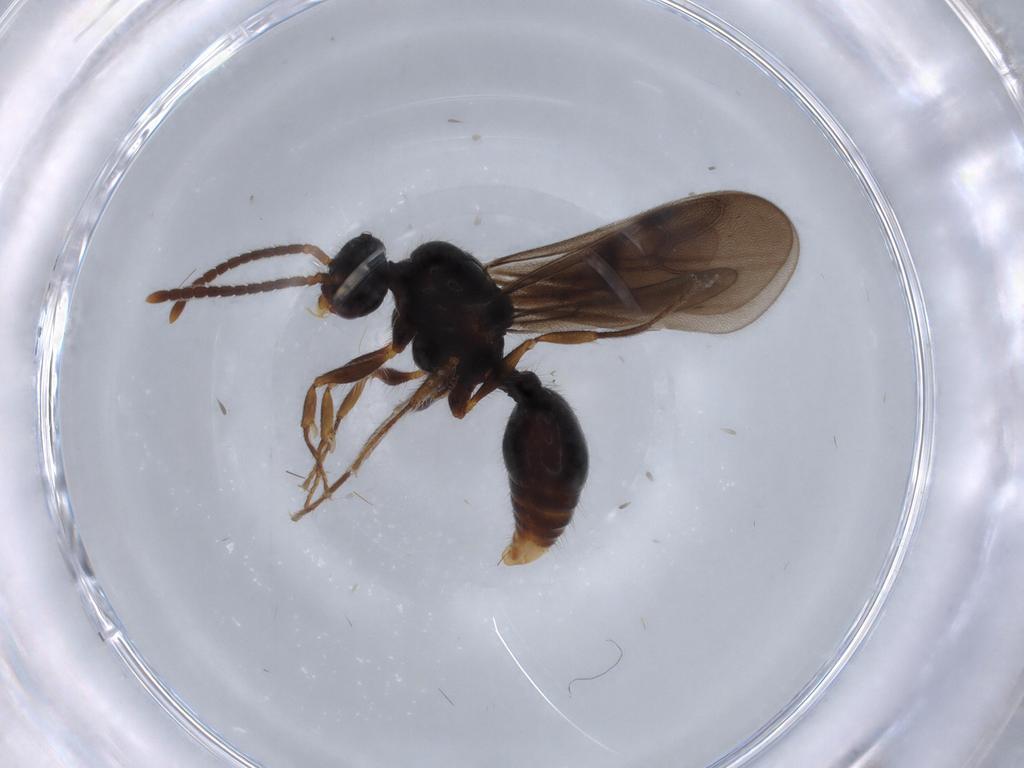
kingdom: Animalia
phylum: Arthropoda
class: Insecta
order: Hymenoptera
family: Formicidae
